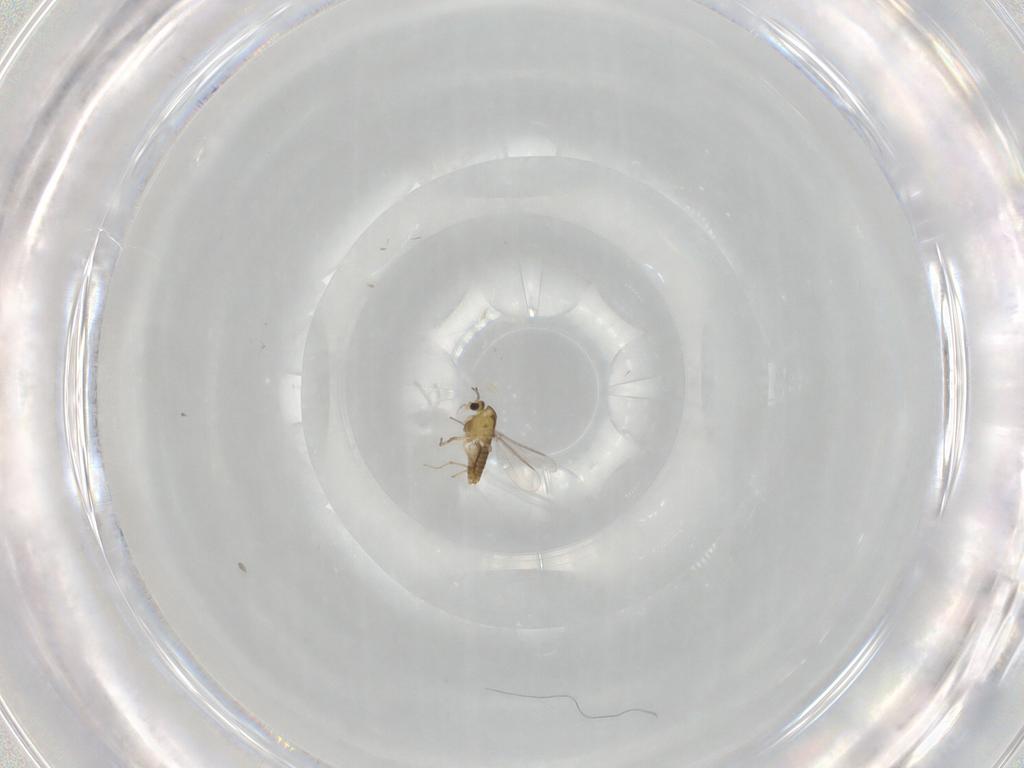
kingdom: Animalia
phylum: Arthropoda
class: Insecta
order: Diptera
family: Chironomidae
